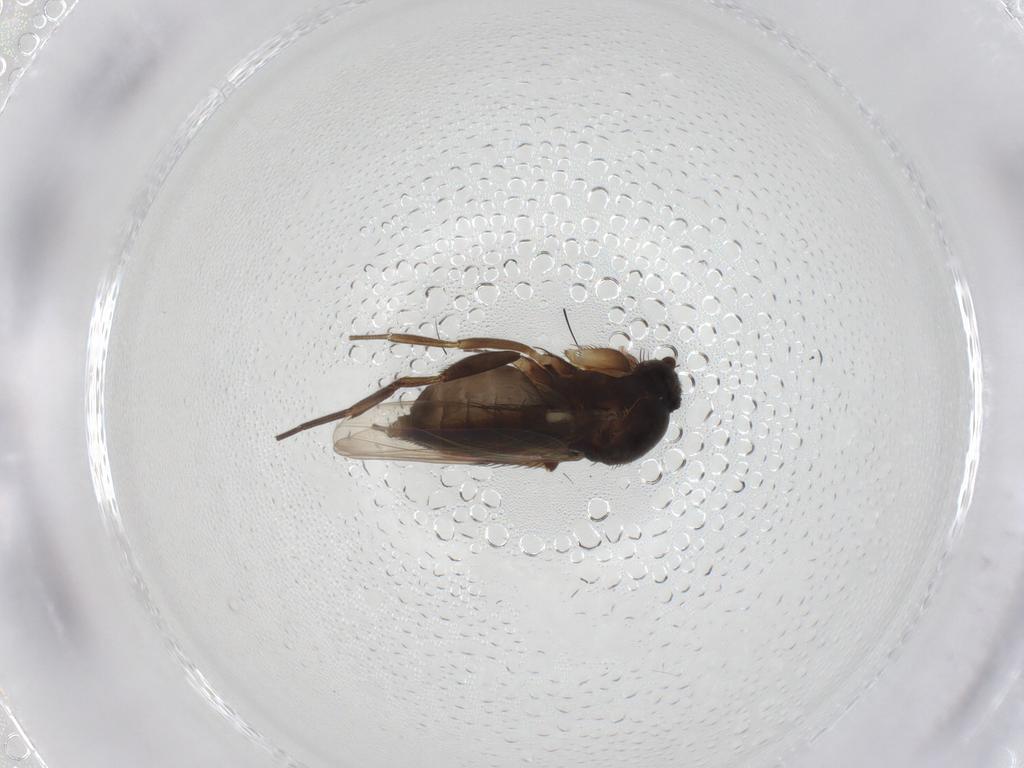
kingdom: Animalia
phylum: Arthropoda
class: Insecta
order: Diptera
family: Phoridae
